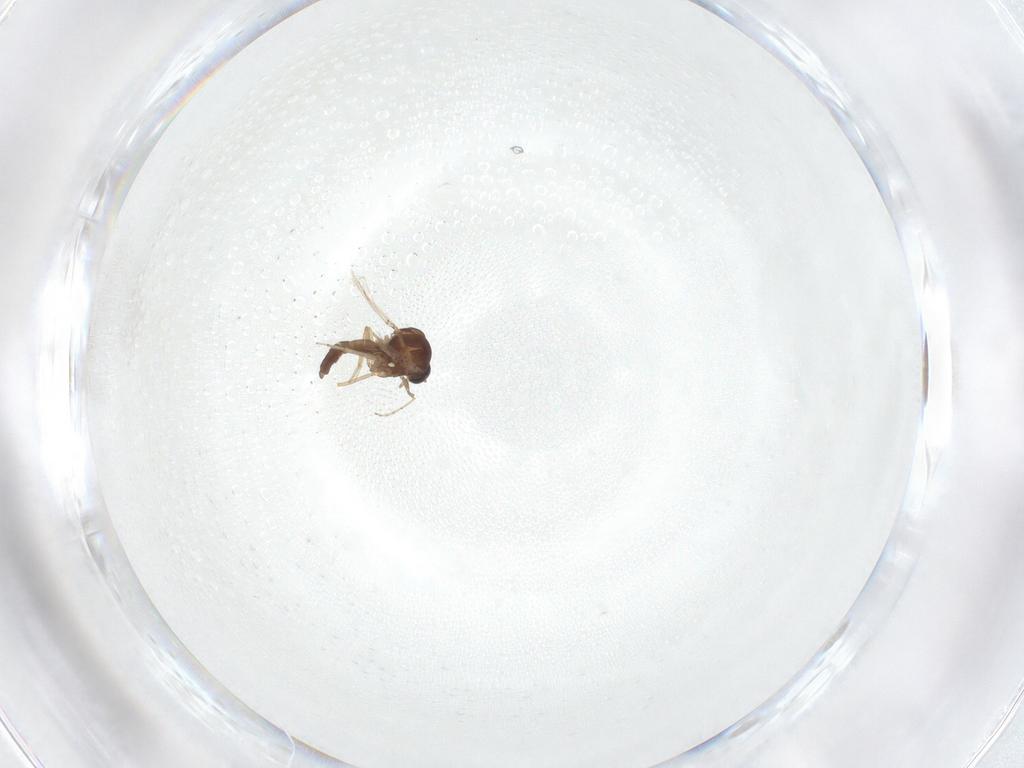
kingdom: Animalia
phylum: Arthropoda
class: Insecta
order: Diptera
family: Ceratopogonidae
